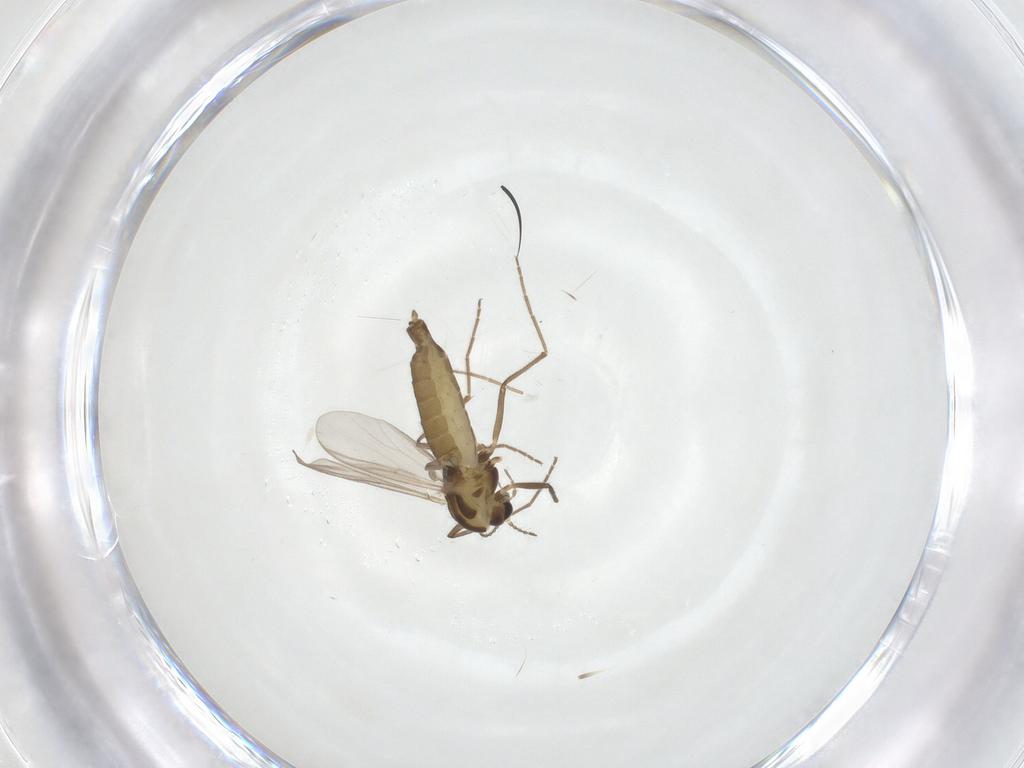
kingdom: Animalia
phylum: Arthropoda
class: Insecta
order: Diptera
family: Chironomidae
